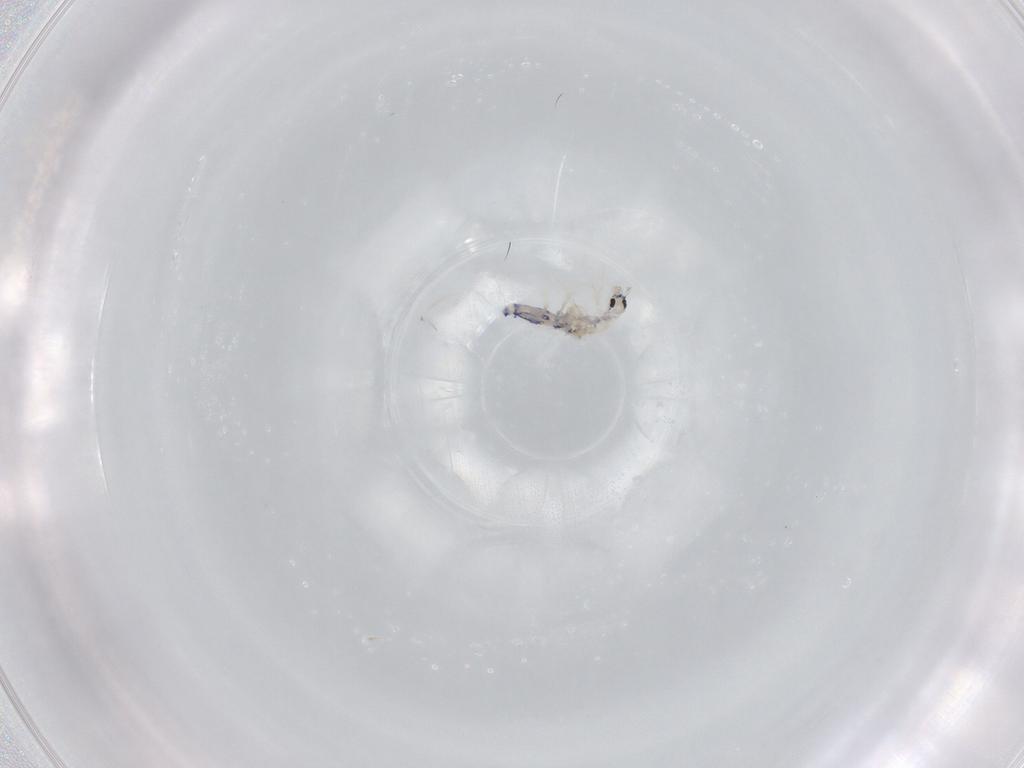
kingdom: Animalia
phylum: Arthropoda
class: Collembola
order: Entomobryomorpha
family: Entomobryidae
